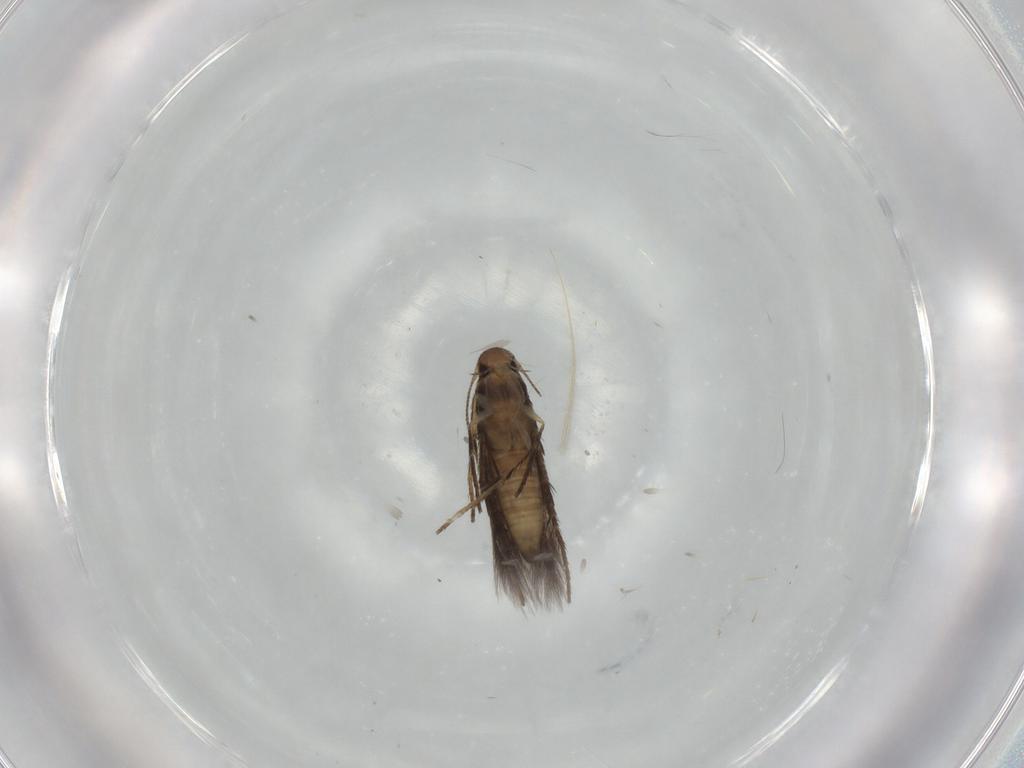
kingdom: Animalia
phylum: Arthropoda
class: Insecta
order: Lepidoptera
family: Pyralidae
